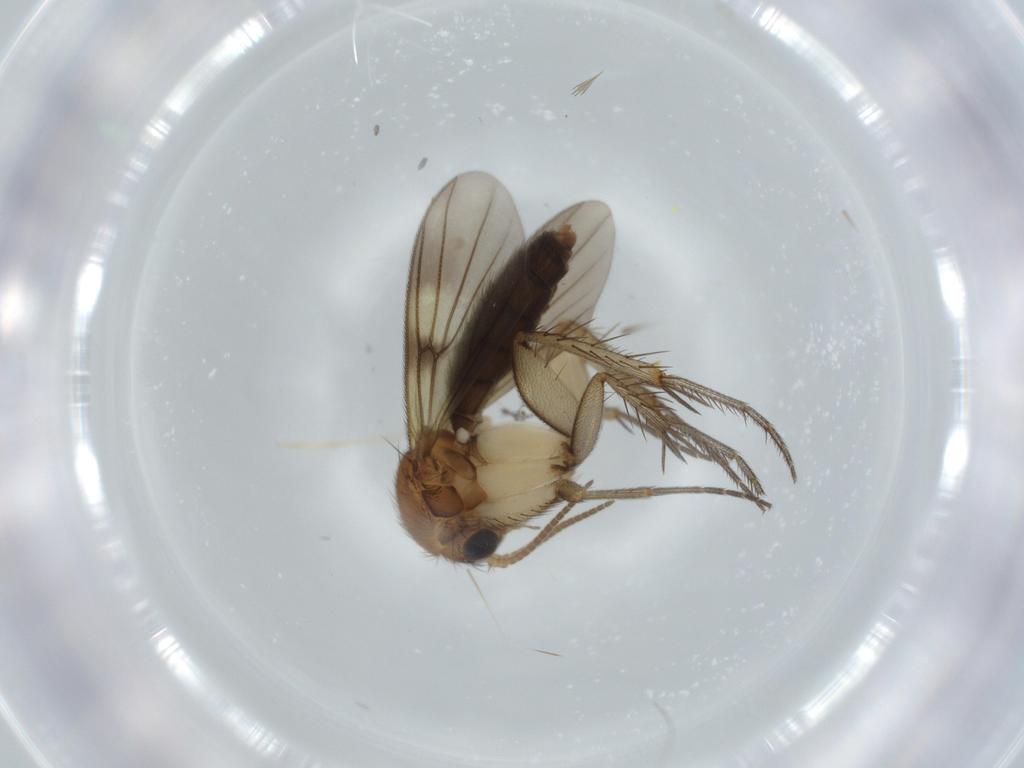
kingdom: Animalia
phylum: Arthropoda
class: Insecta
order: Diptera
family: Mycetophilidae
